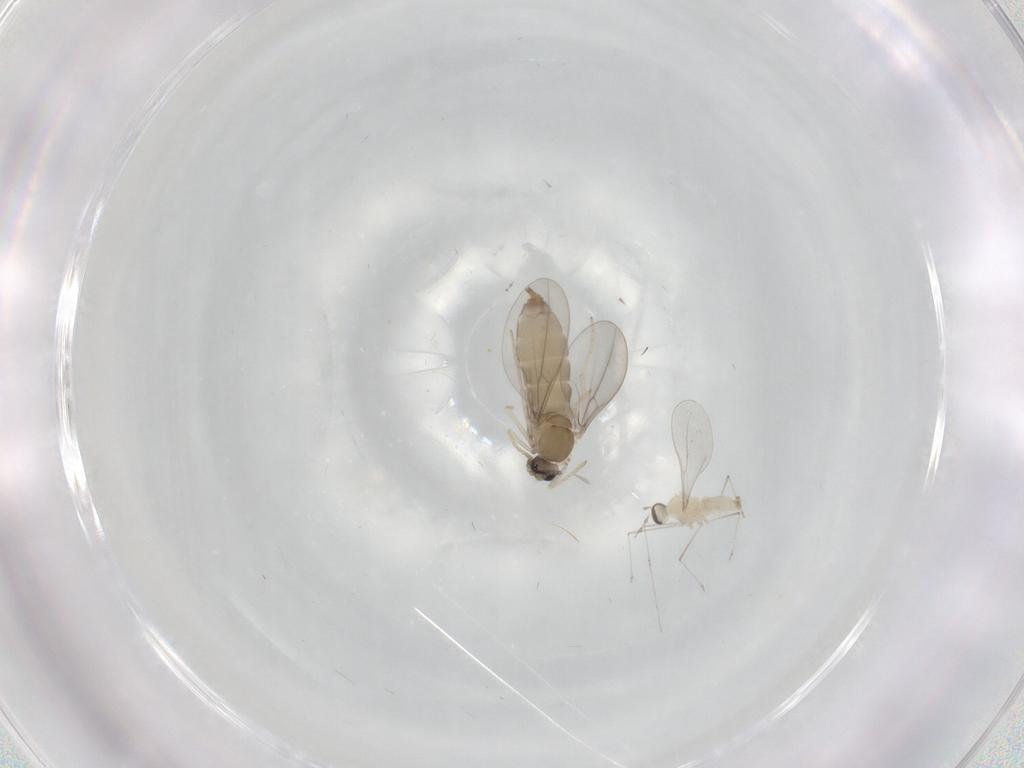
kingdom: Animalia
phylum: Arthropoda
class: Insecta
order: Diptera
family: Cecidomyiidae
